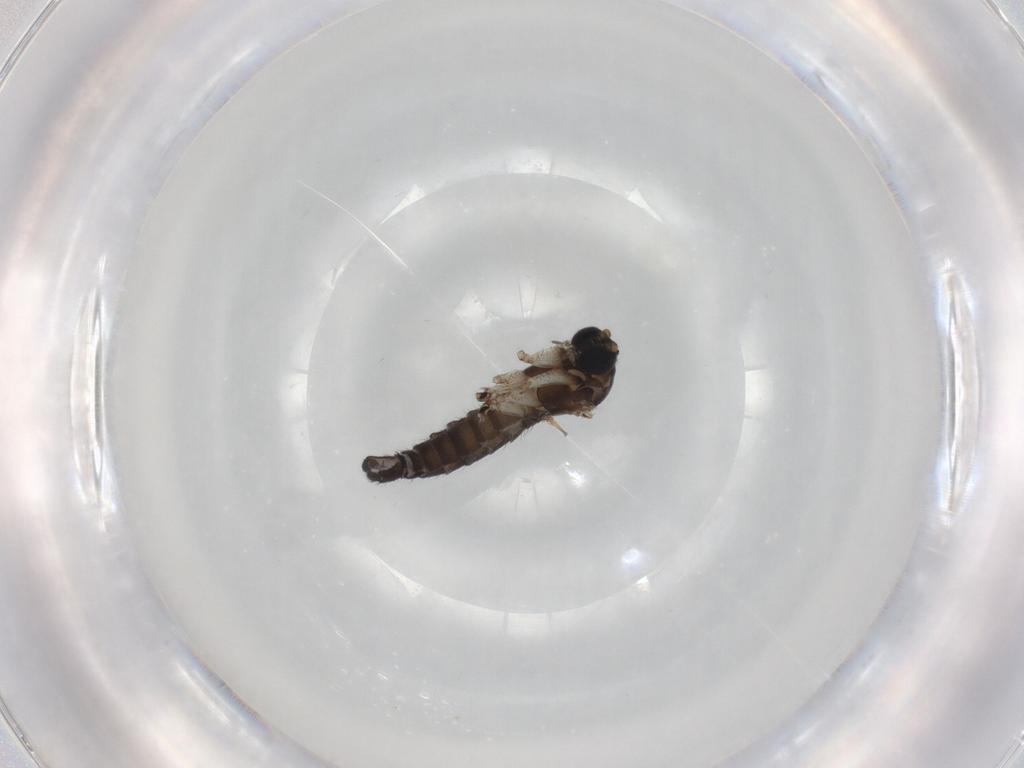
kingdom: Animalia
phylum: Arthropoda
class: Insecta
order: Diptera
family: Sciaridae
